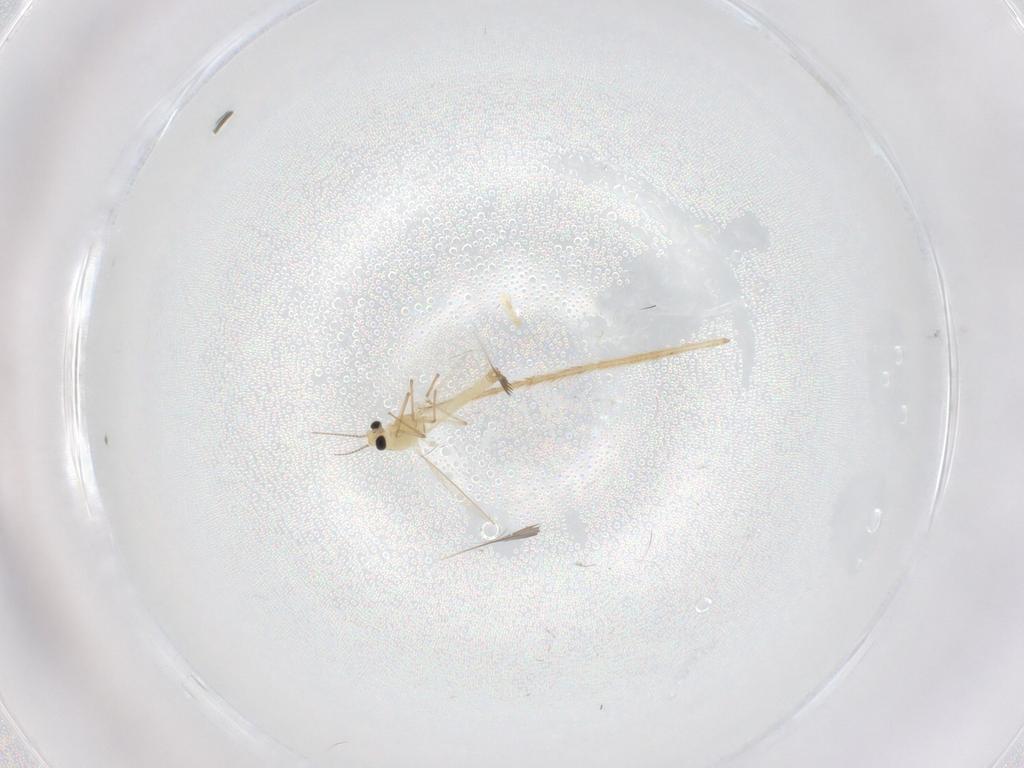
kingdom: Animalia
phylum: Arthropoda
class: Insecta
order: Diptera
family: Chironomidae
